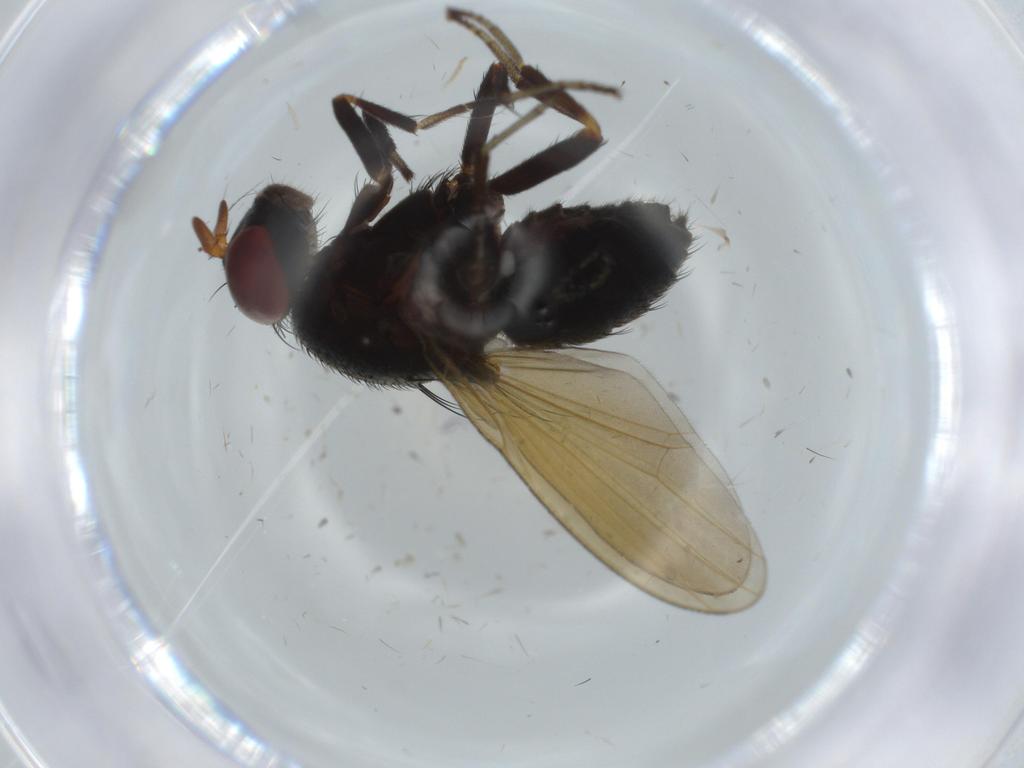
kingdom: Animalia
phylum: Arthropoda
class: Insecta
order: Diptera
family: Lauxaniidae
